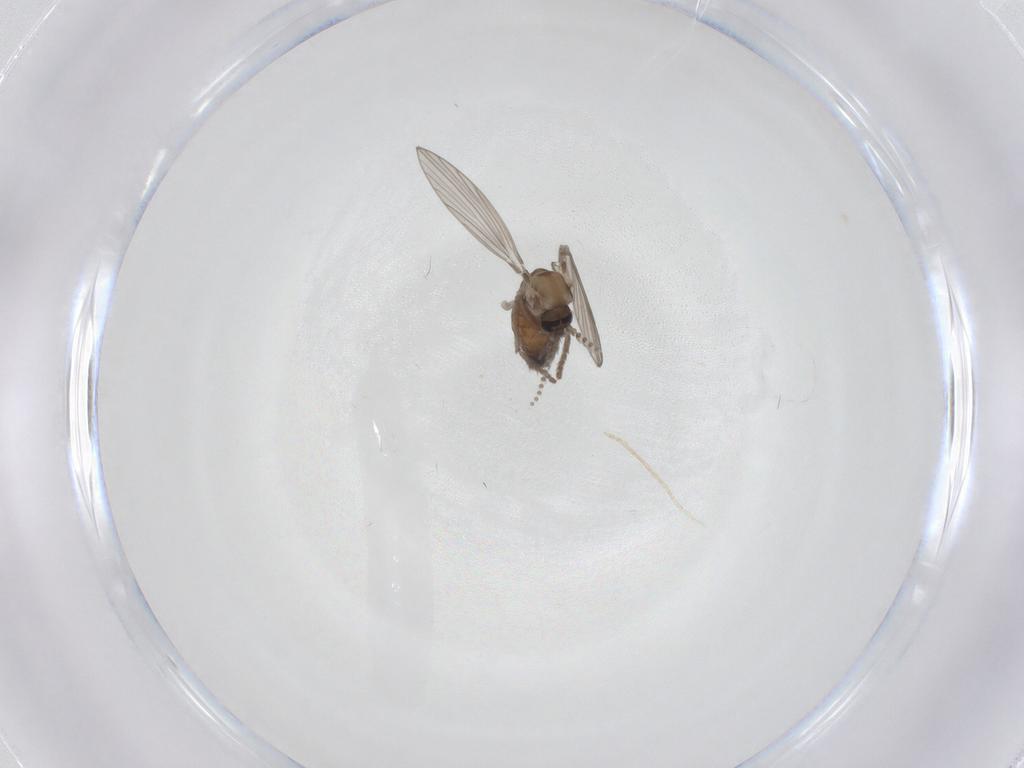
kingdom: Animalia
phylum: Arthropoda
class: Insecta
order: Diptera
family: Psychodidae
